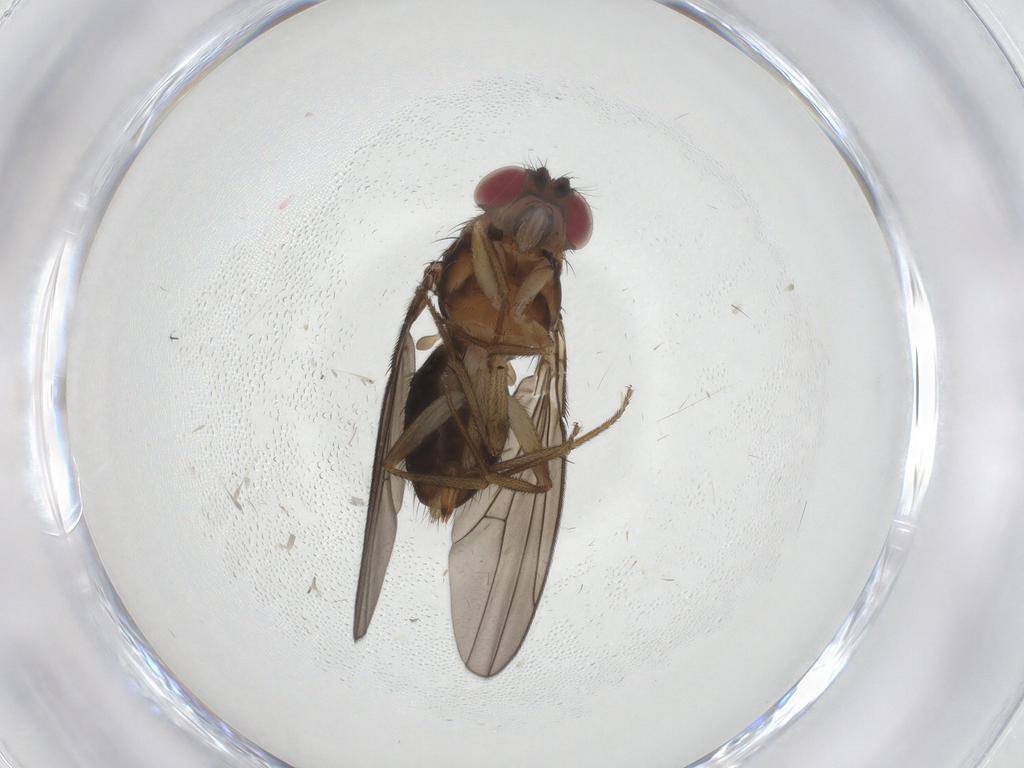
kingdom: Animalia
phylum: Arthropoda
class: Insecta
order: Diptera
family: Drosophilidae
